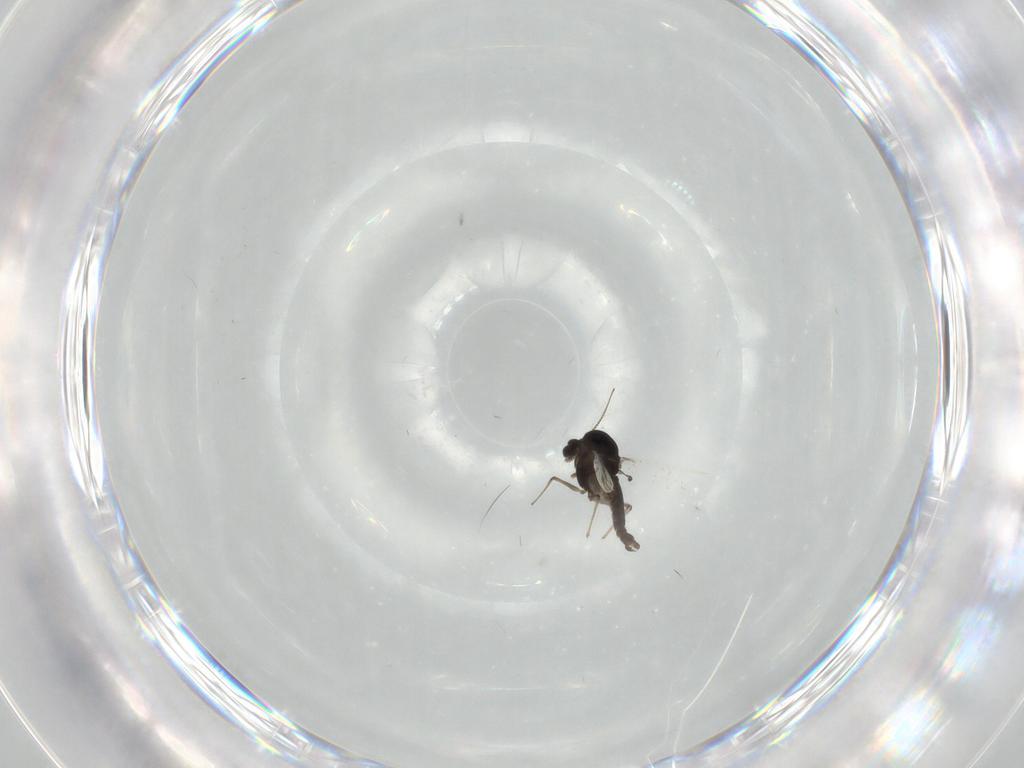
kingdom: Animalia
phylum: Arthropoda
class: Insecta
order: Diptera
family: Chironomidae
